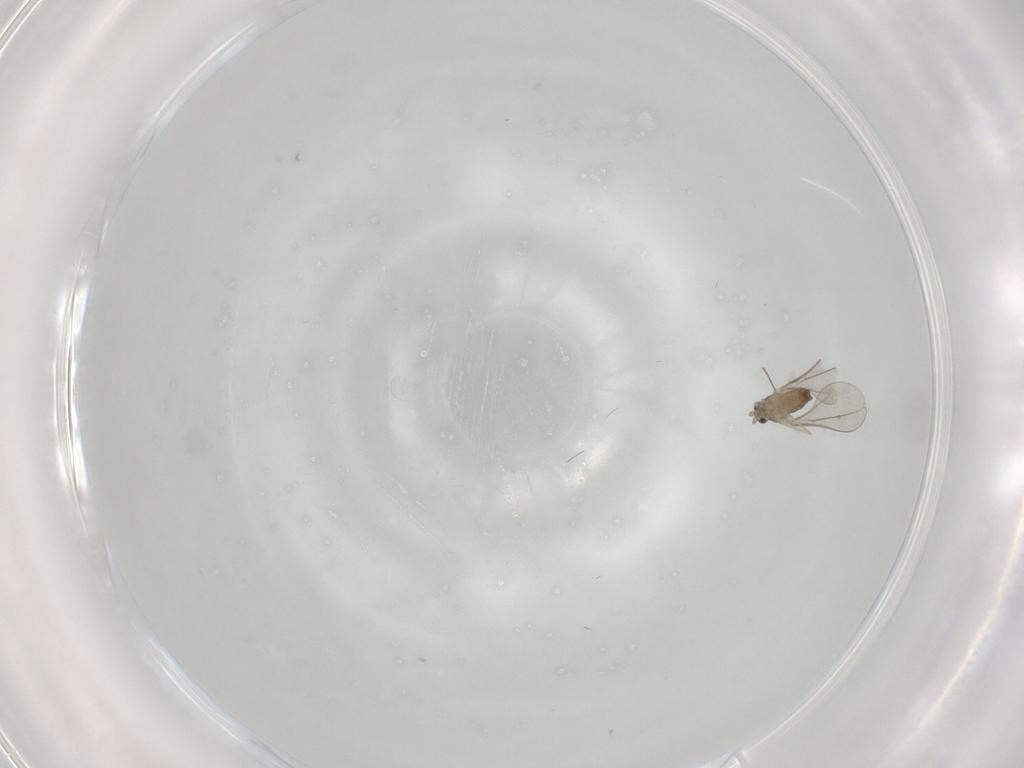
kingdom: Animalia
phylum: Arthropoda
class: Insecta
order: Diptera
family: Cecidomyiidae
